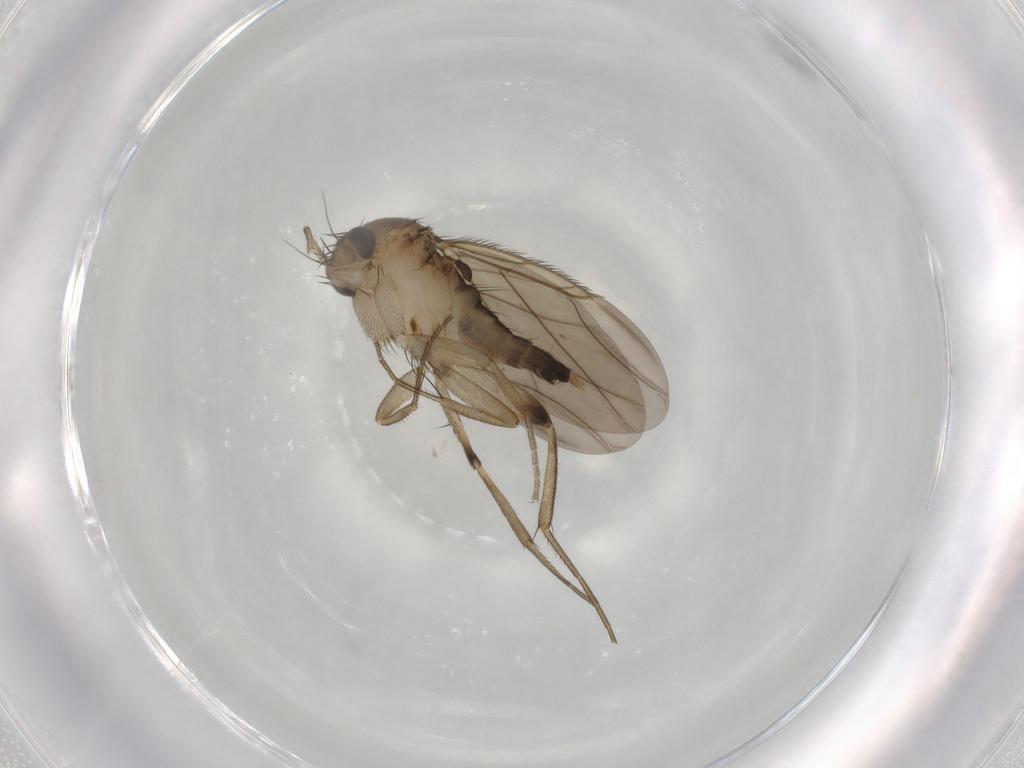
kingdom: Animalia
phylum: Arthropoda
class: Insecta
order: Diptera
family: Phoridae
